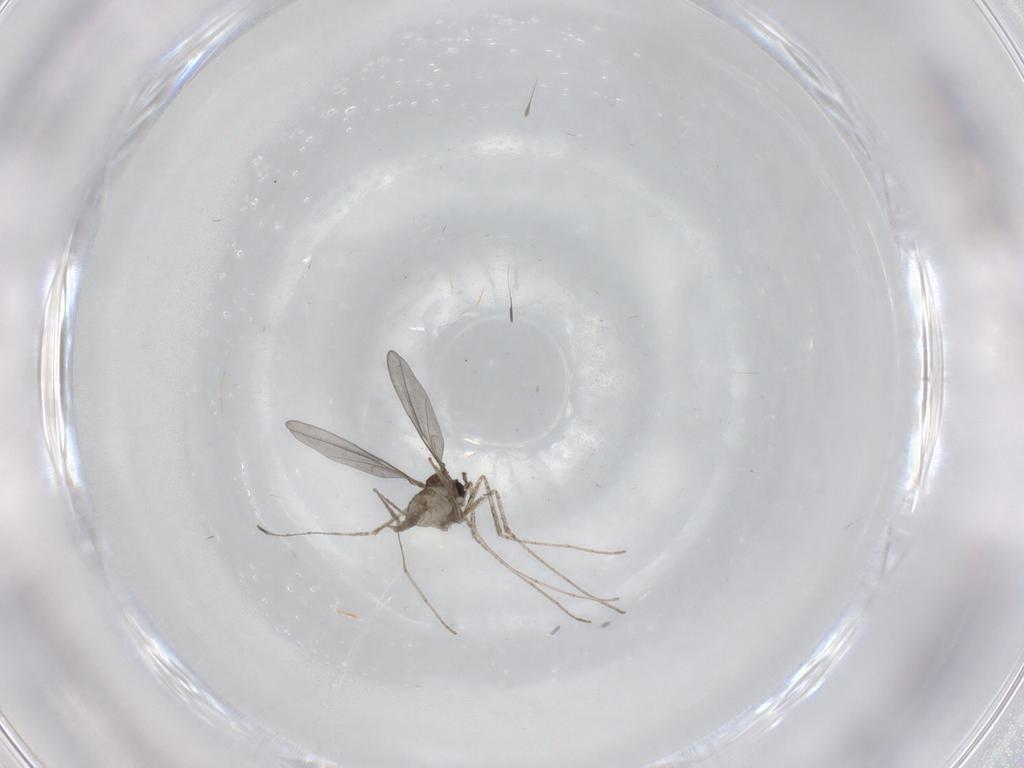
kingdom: Animalia
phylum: Arthropoda
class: Insecta
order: Diptera
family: Cecidomyiidae
